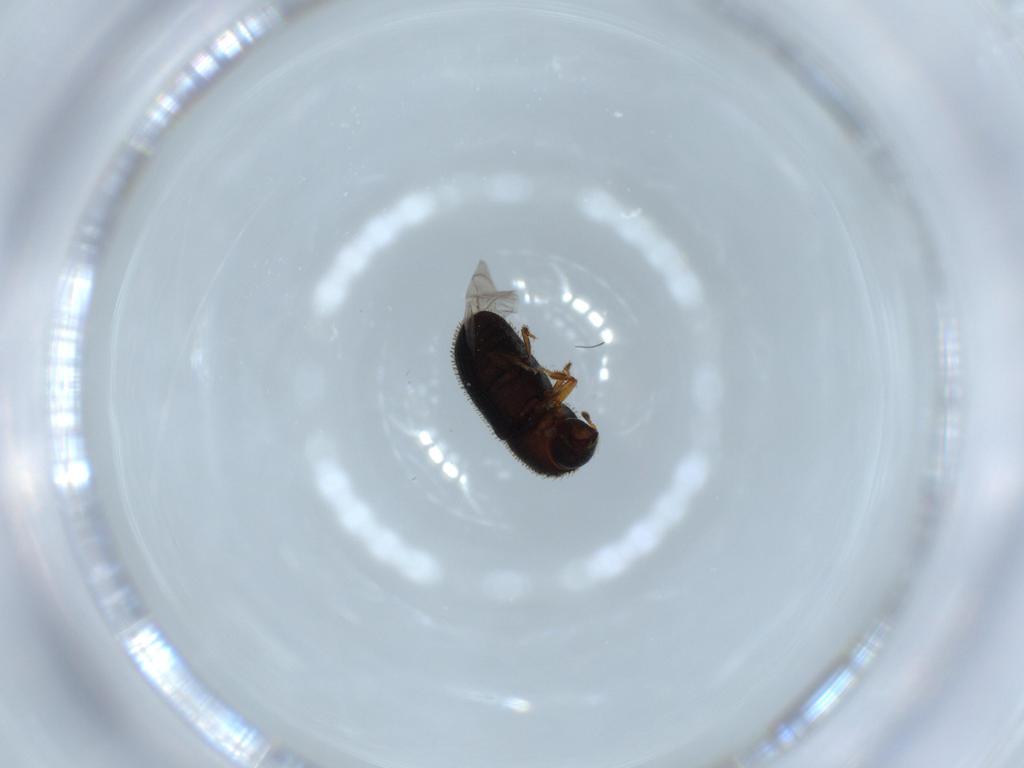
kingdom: Animalia
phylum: Arthropoda
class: Insecta
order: Coleoptera
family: Curculionidae
